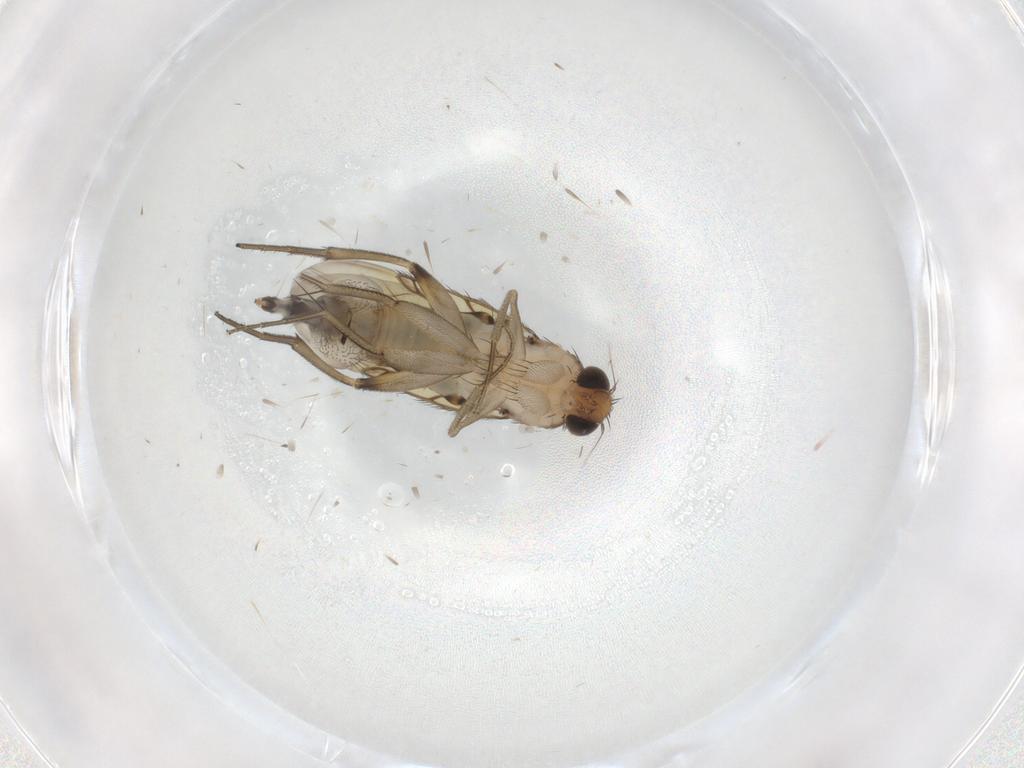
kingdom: Animalia
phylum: Arthropoda
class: Insecta
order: Diptera
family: Phoridae
